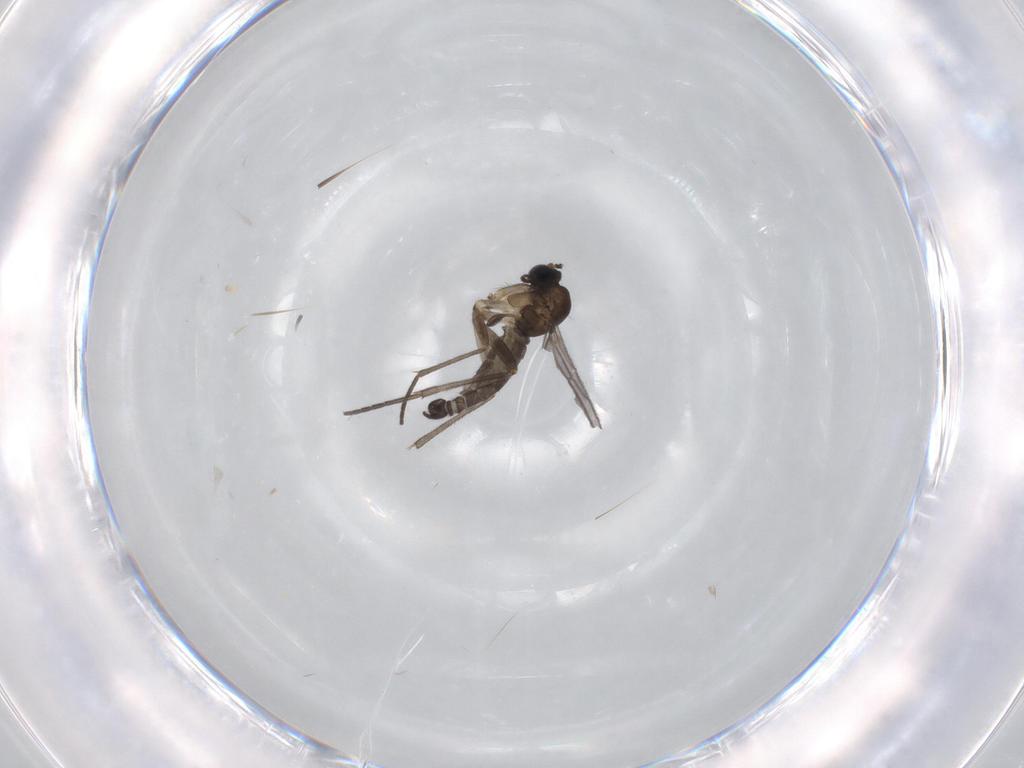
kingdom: Animalia
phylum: Arthropoda
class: Insecta
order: Diptera
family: Sciaridae
